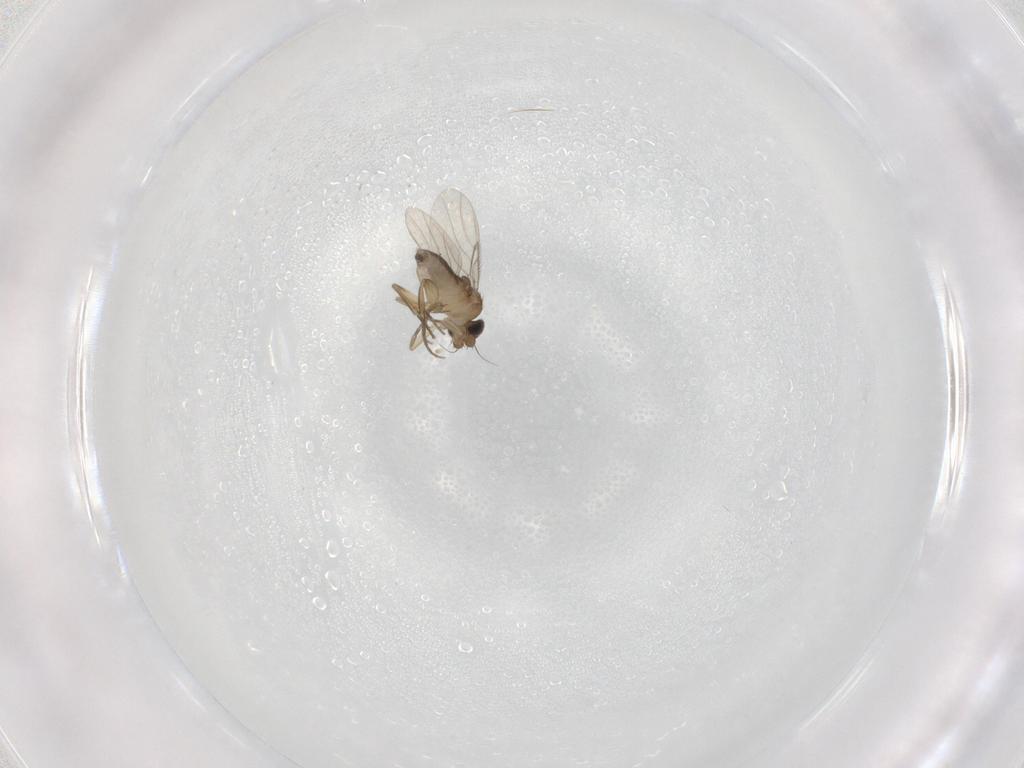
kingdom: Animalia
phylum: Arthropoda
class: Insecta
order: Diptera
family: Phoridae
